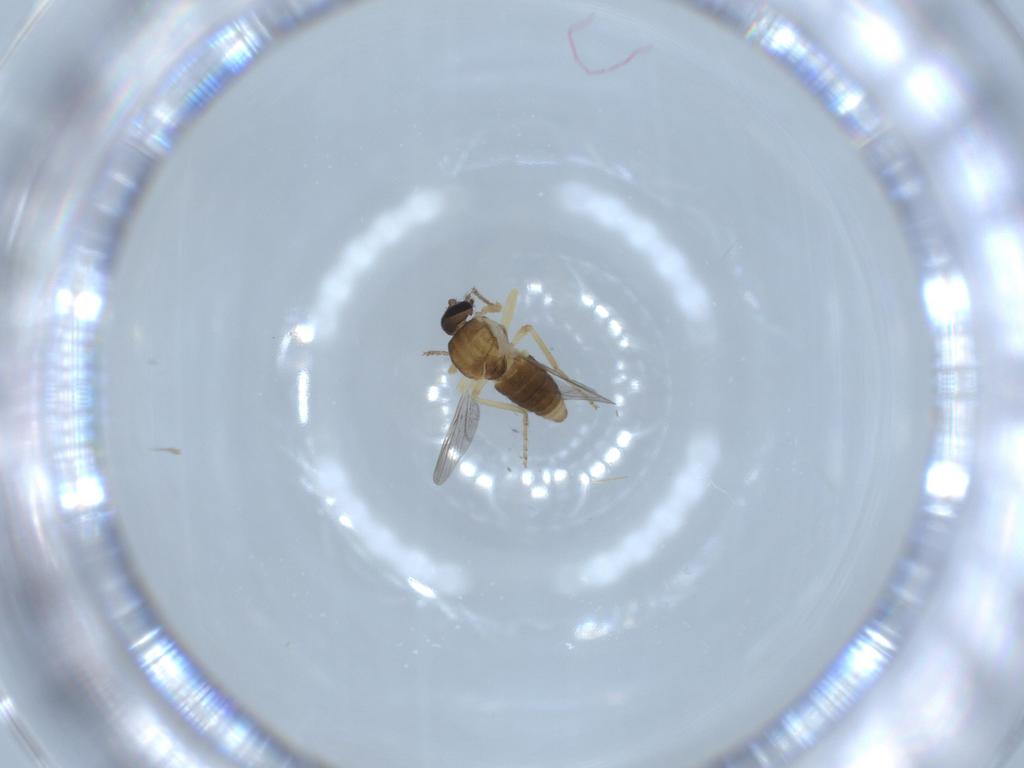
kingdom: Animalia
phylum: Arthropoda
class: Insecta
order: Diptera
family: Ceratopogonidae
